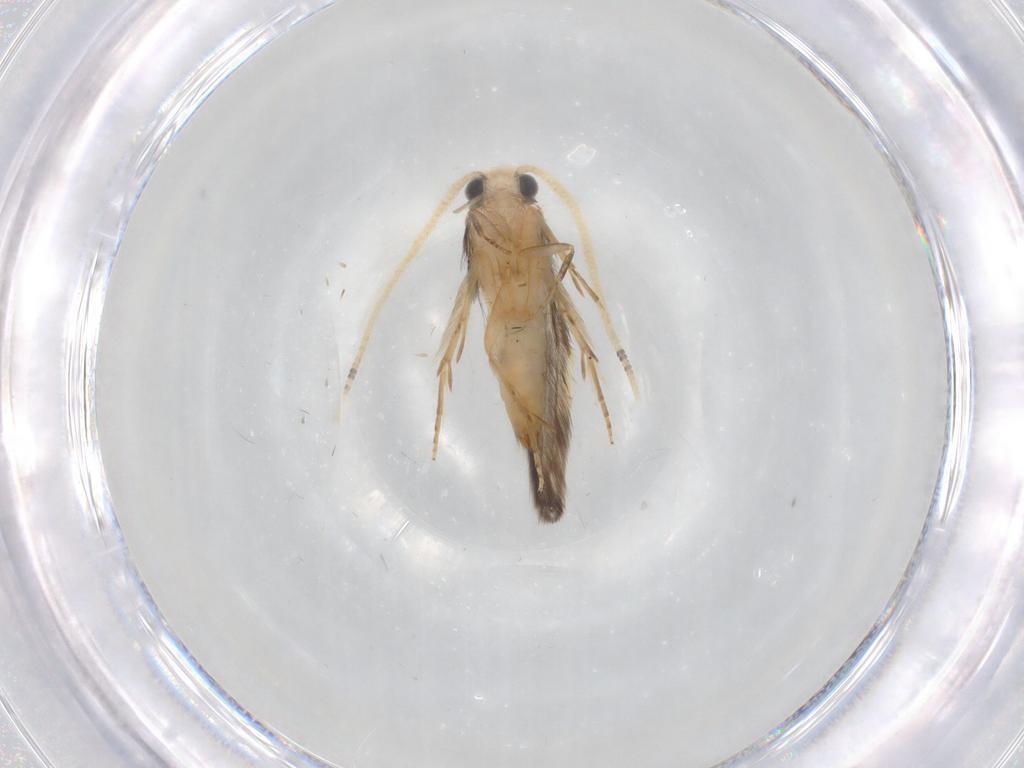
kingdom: Animalia
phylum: Arthropoda
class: Insecta
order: Trichoptera
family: Hydroptilidae
